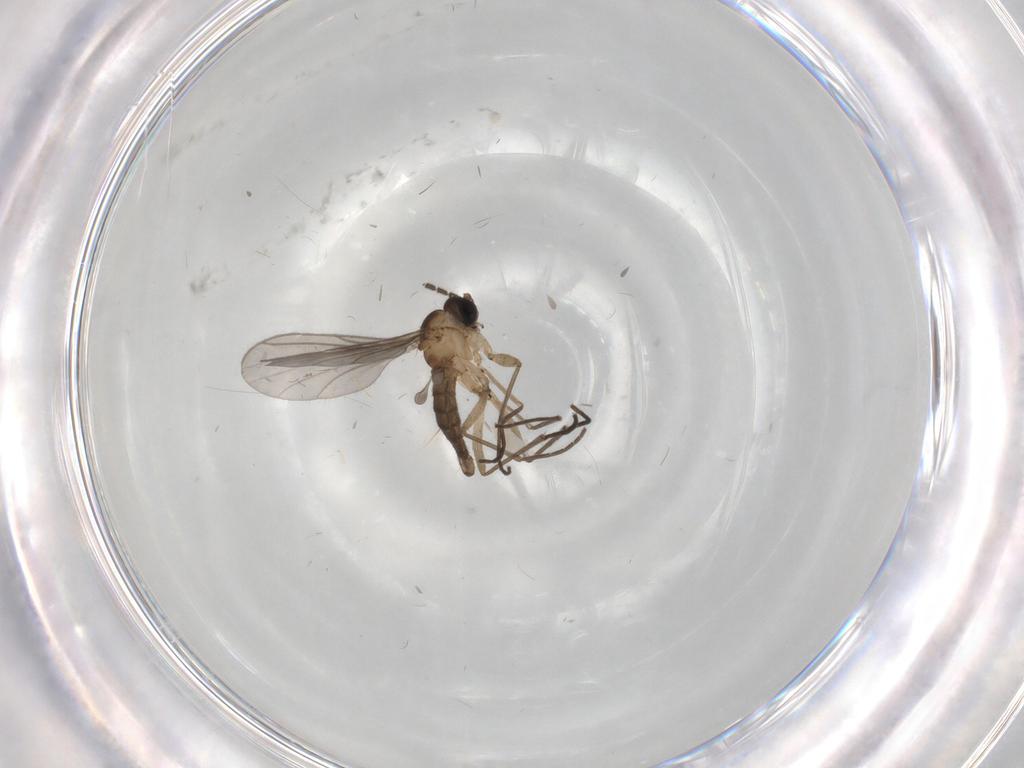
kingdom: Animalia
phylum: Arthropoda
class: Insecta
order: Diptera
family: Sciaridae
